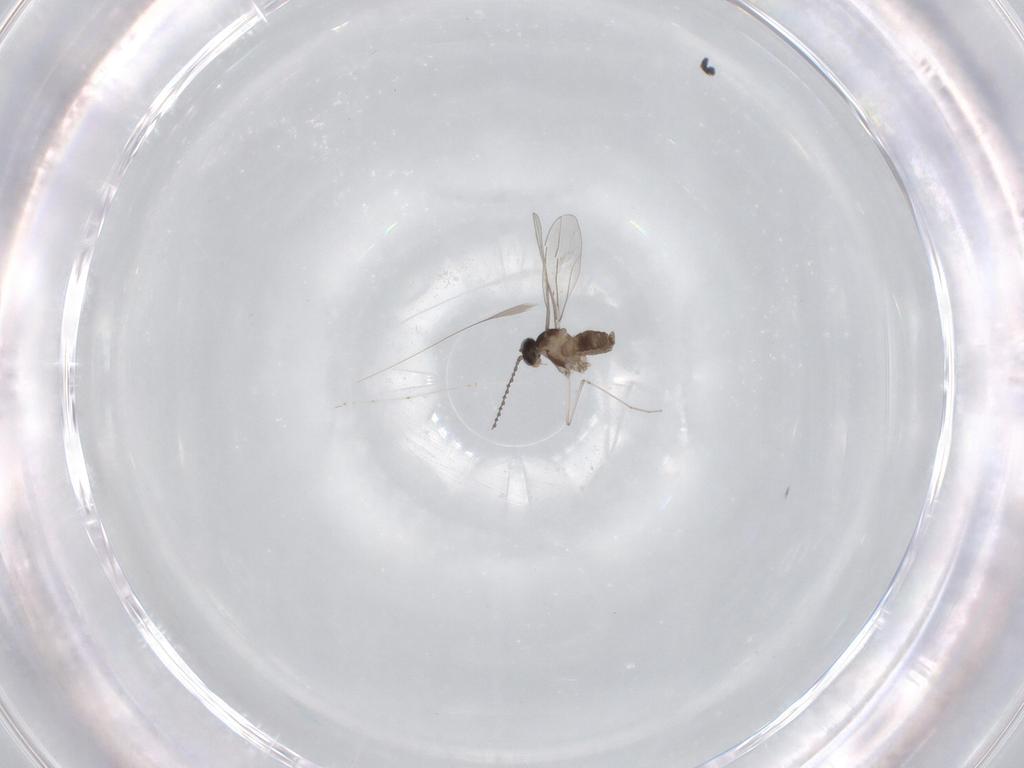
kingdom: Animalia
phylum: Arthropoda
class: Insecta
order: Diptera
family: Cecidomyiidae
